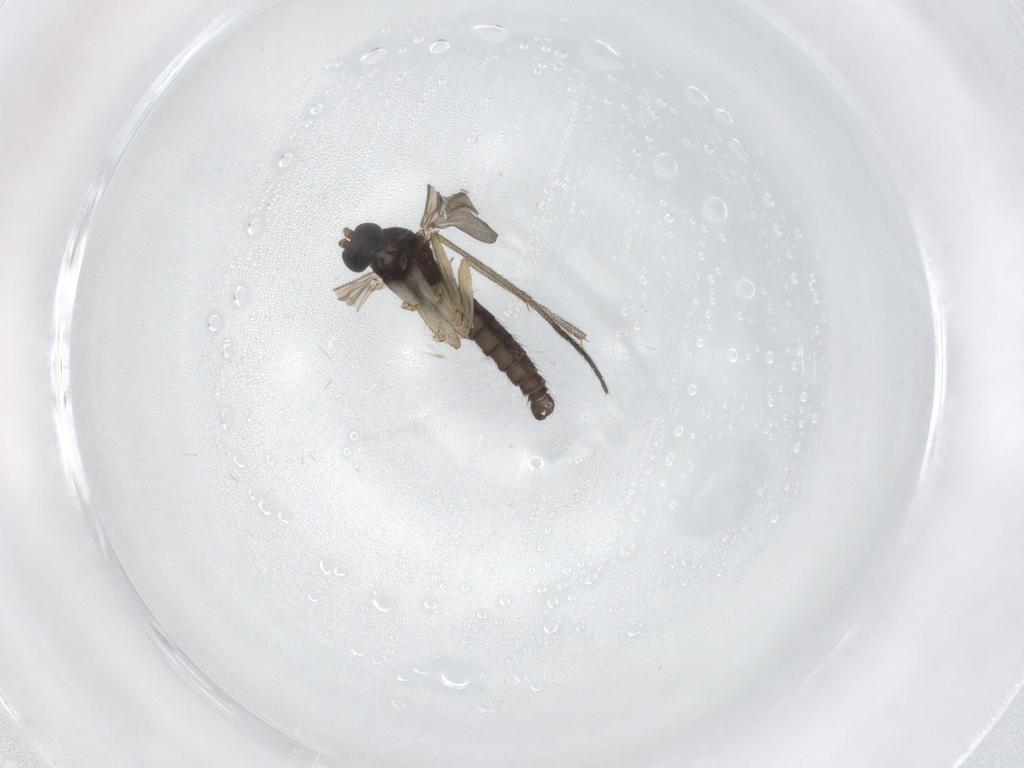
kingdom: Animalia
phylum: Arthropoda
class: Insecta
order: Diptera
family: Sciaridae
